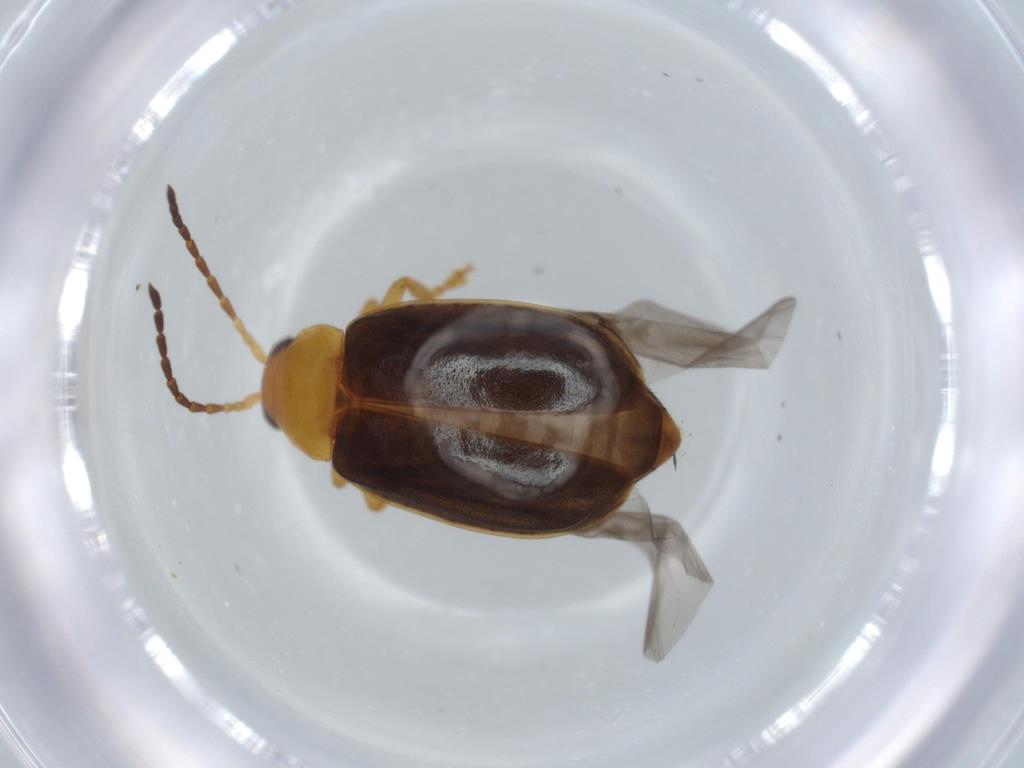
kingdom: Animalia
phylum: Arthropoda
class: Insecta
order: Coleoptera
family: Chrysomelidae
